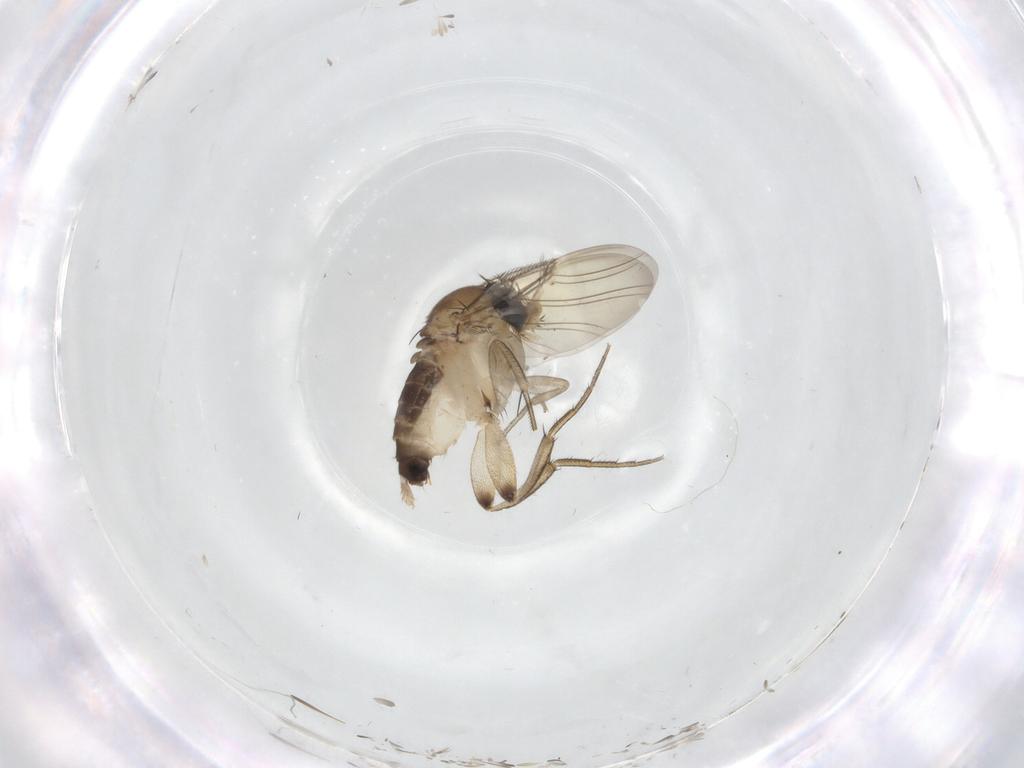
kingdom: Animalia
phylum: Arthropoda
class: Insecta
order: Diptera
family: Phoridae
